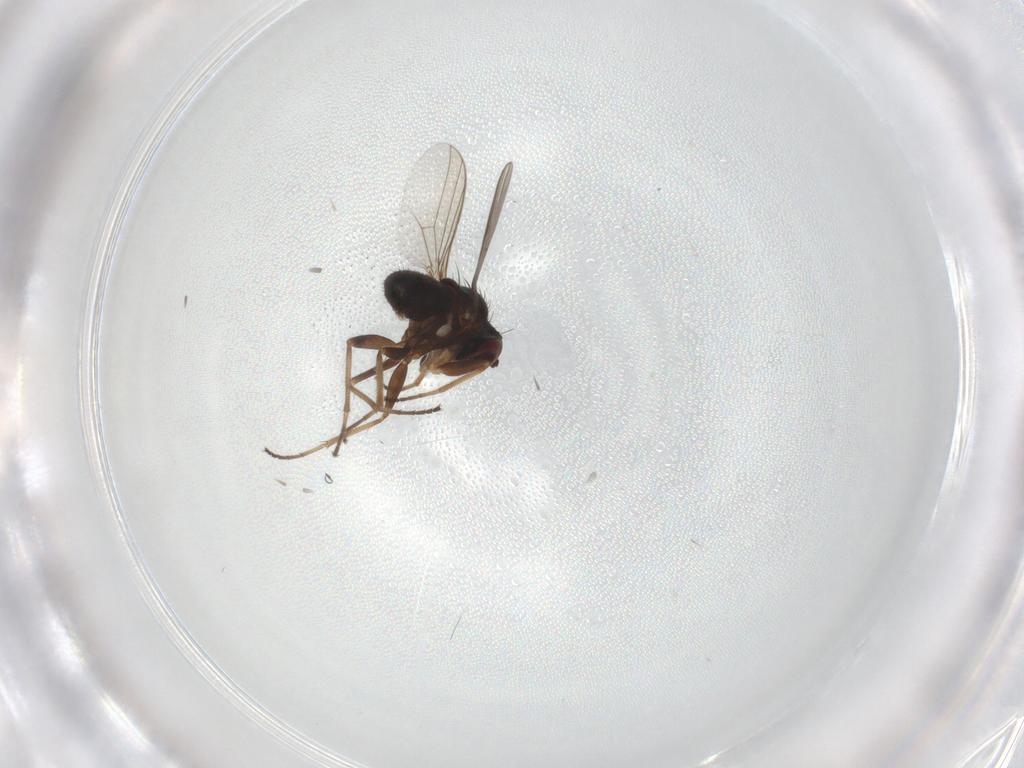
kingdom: Animalia
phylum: Arthropoda
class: Insecta
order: Diptera
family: Dolichopodidae
